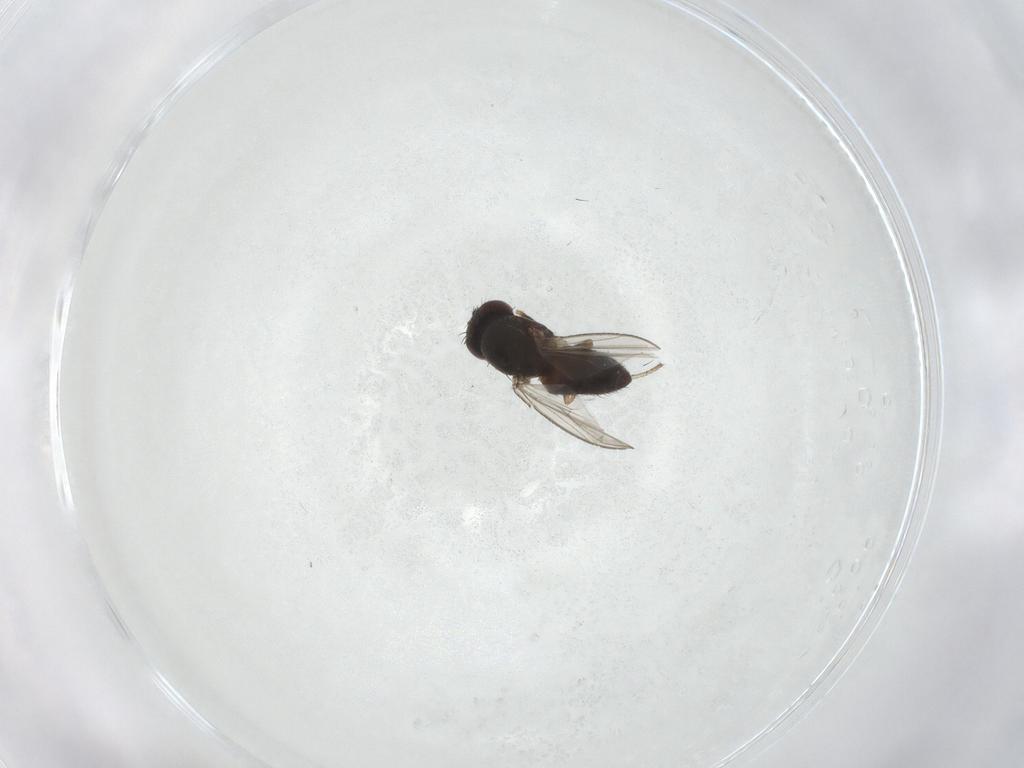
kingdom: Animalia
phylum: Arthropoda
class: Insecta
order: Diptera
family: Ephydridae
